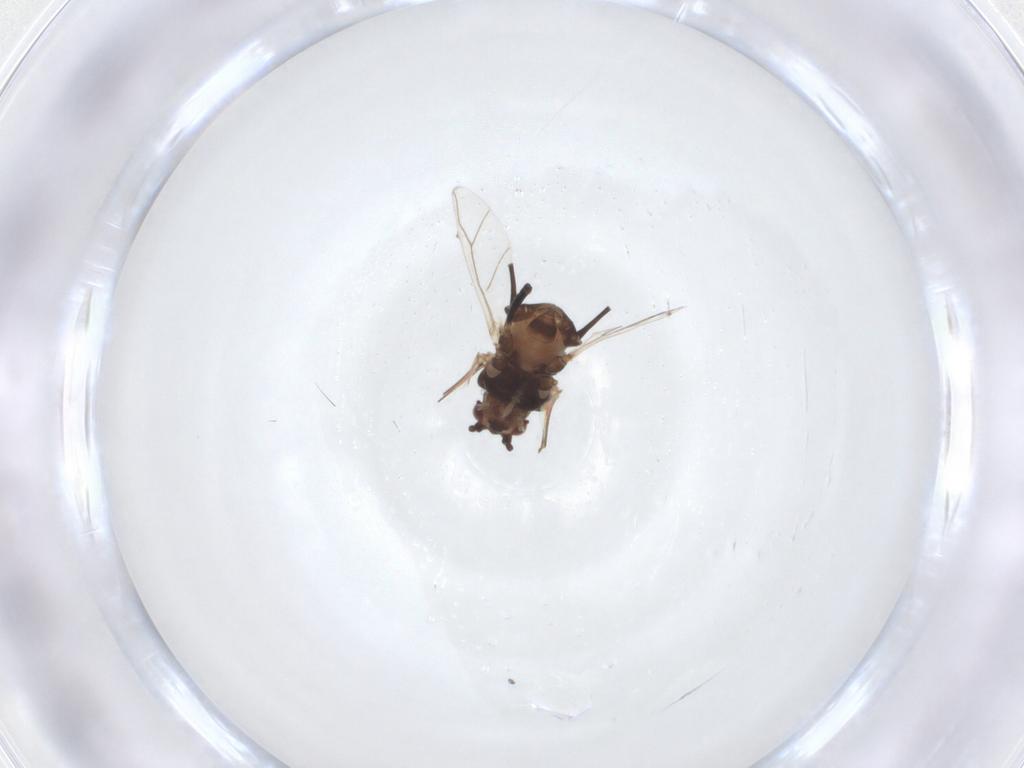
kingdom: Animalia
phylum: Arthropoda
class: Insecta
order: Hemiptera
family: Aphididae
